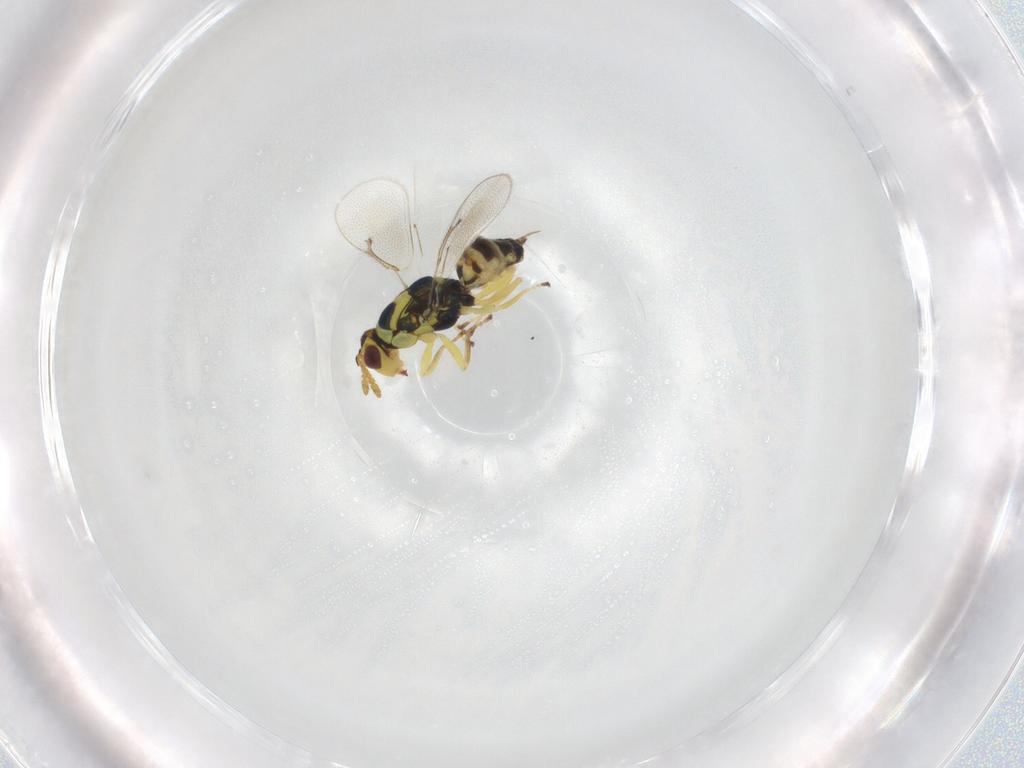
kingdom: Animalia
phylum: Arthropoda
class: Insecta
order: Hymenoptera
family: Eulophidae
